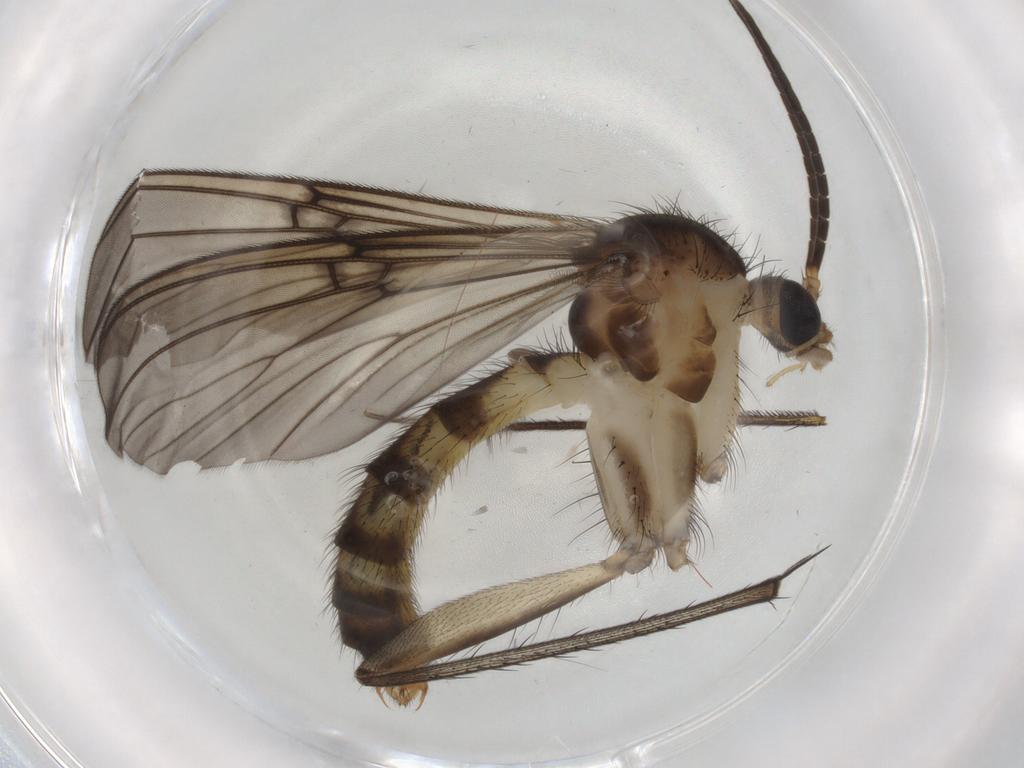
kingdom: Animalia
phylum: Arthropoda
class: Insecta
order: Diptera
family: Mycetophilidae
